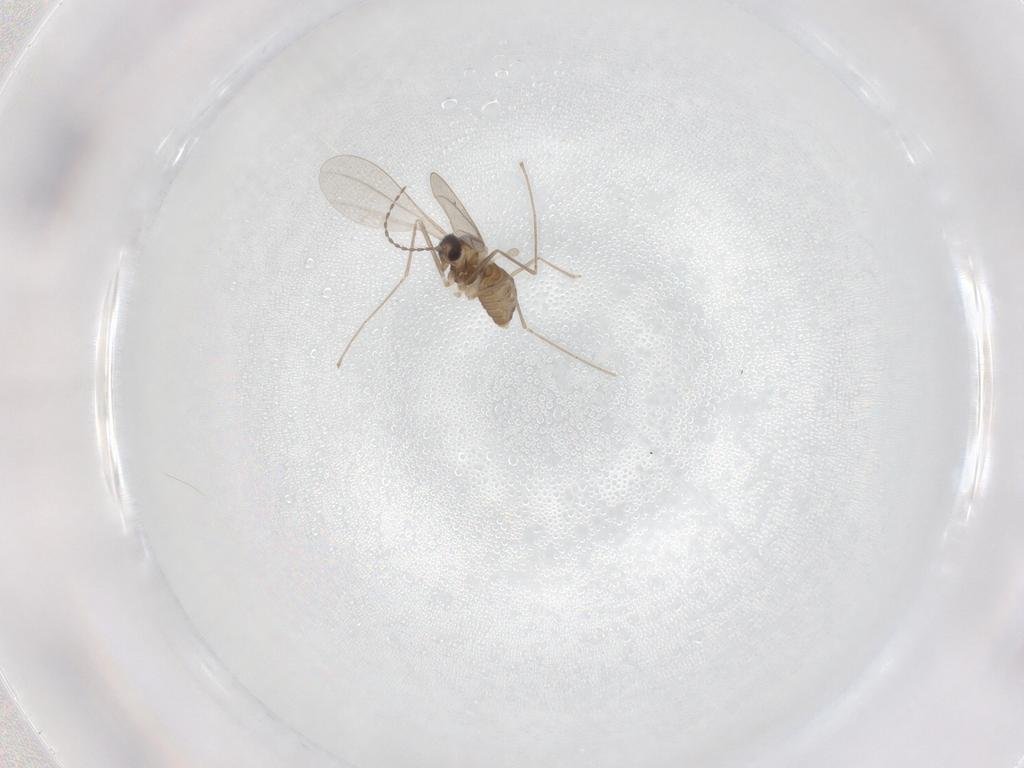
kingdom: Animalia
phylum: Arthropoda
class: Insecta
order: Diptera
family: Cecidomyiidae
